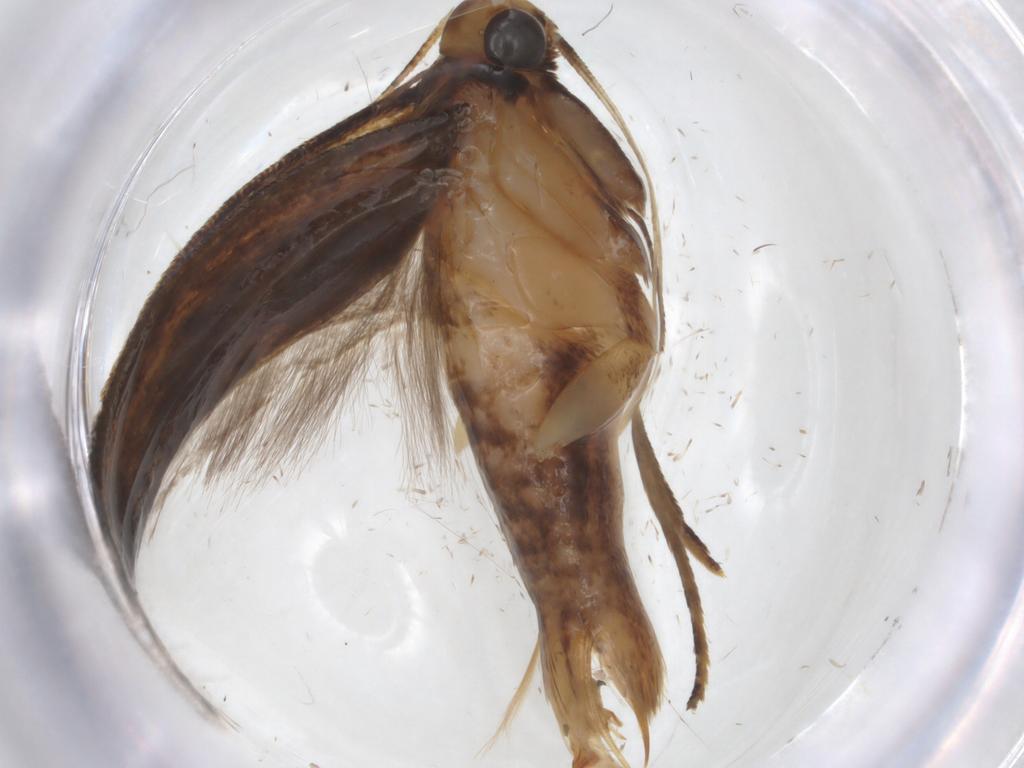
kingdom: Animalia
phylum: Arthropoda
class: Insecta
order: Lepidoptera
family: Gelechiidae
